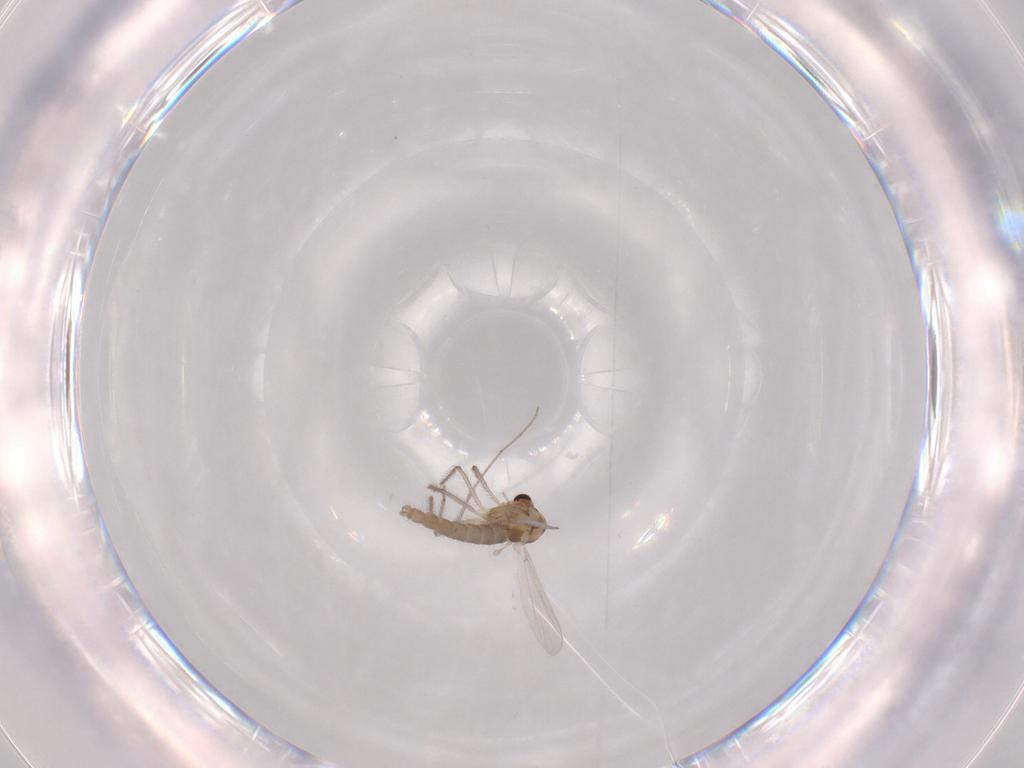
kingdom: Animalia
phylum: Arthropoda
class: Insecta
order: Diptera
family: Chironomidae
